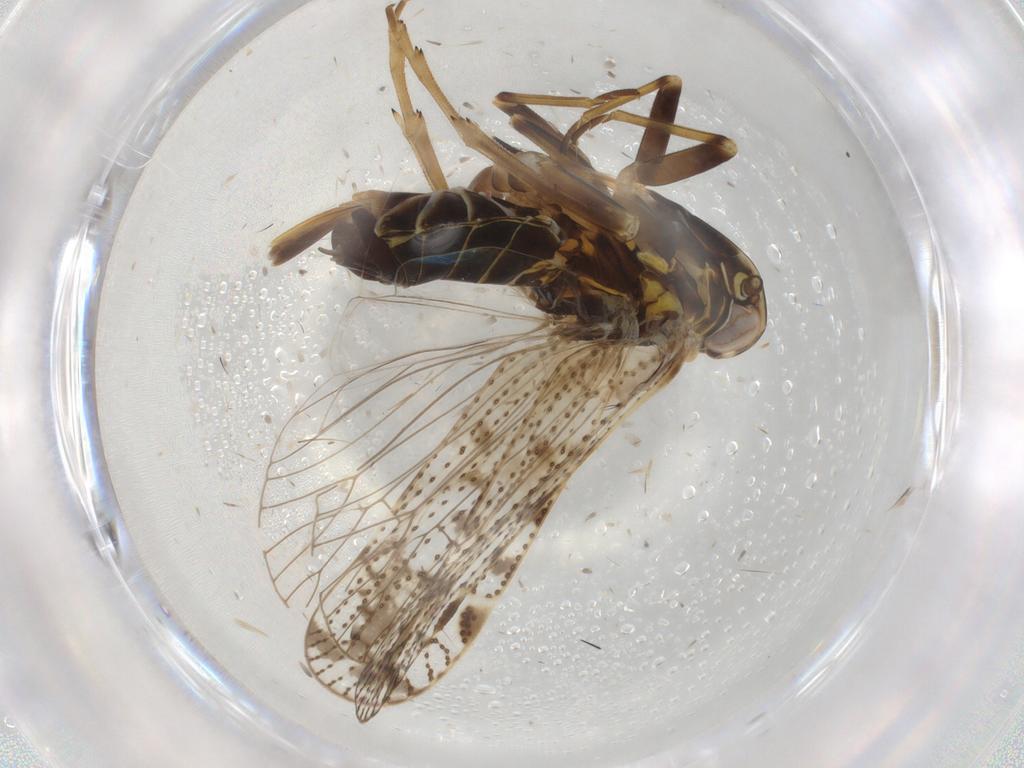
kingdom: Animalia
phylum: Arthropoda
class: Insecta
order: Hemiptera
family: Cixiidae
